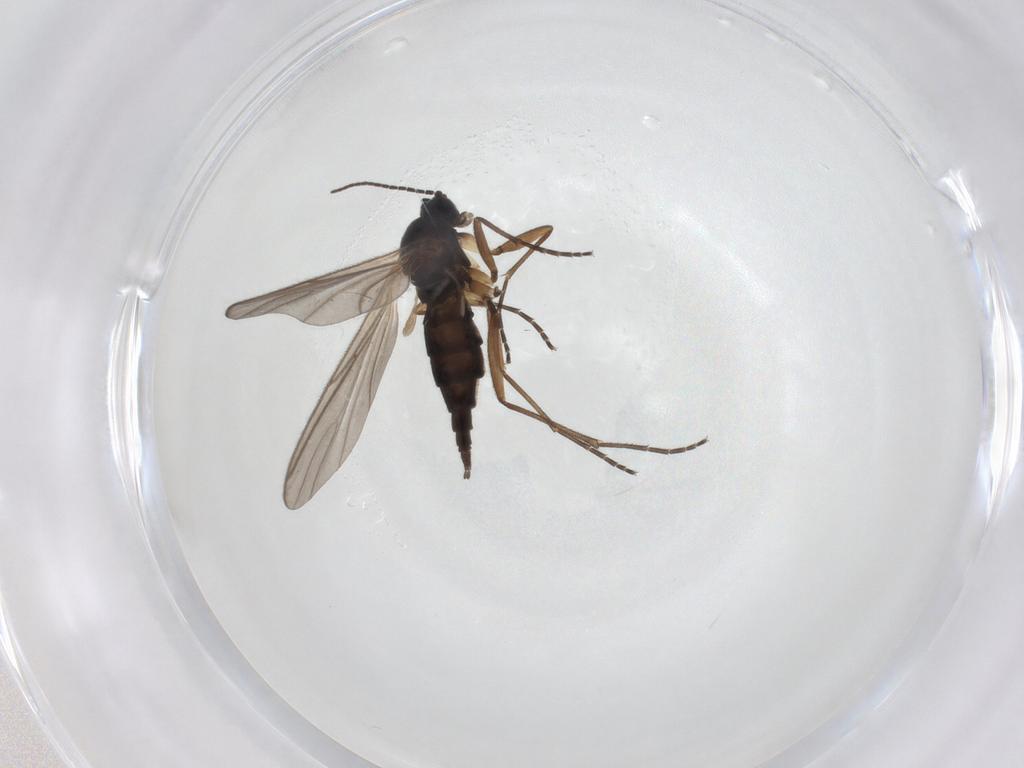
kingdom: Animalia
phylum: Arthropoda
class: Insecta
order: Diptera
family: Sciaridae
